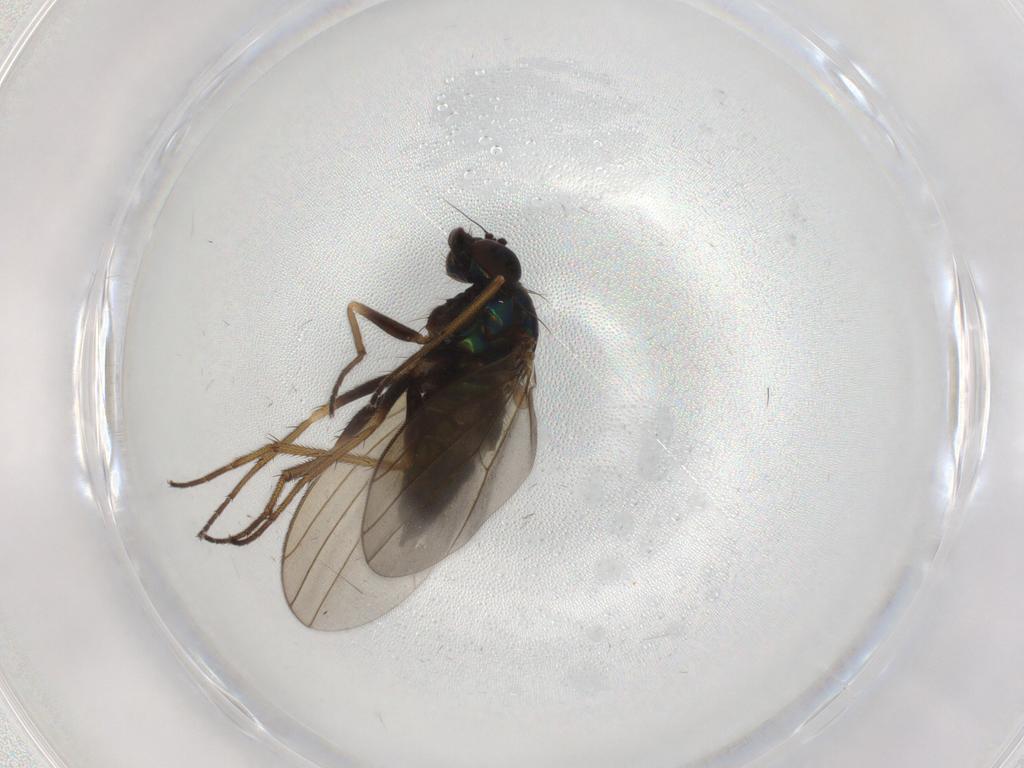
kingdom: Animalia
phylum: Arthropoda
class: Insecta
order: Diptera
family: Dolichopodidae
